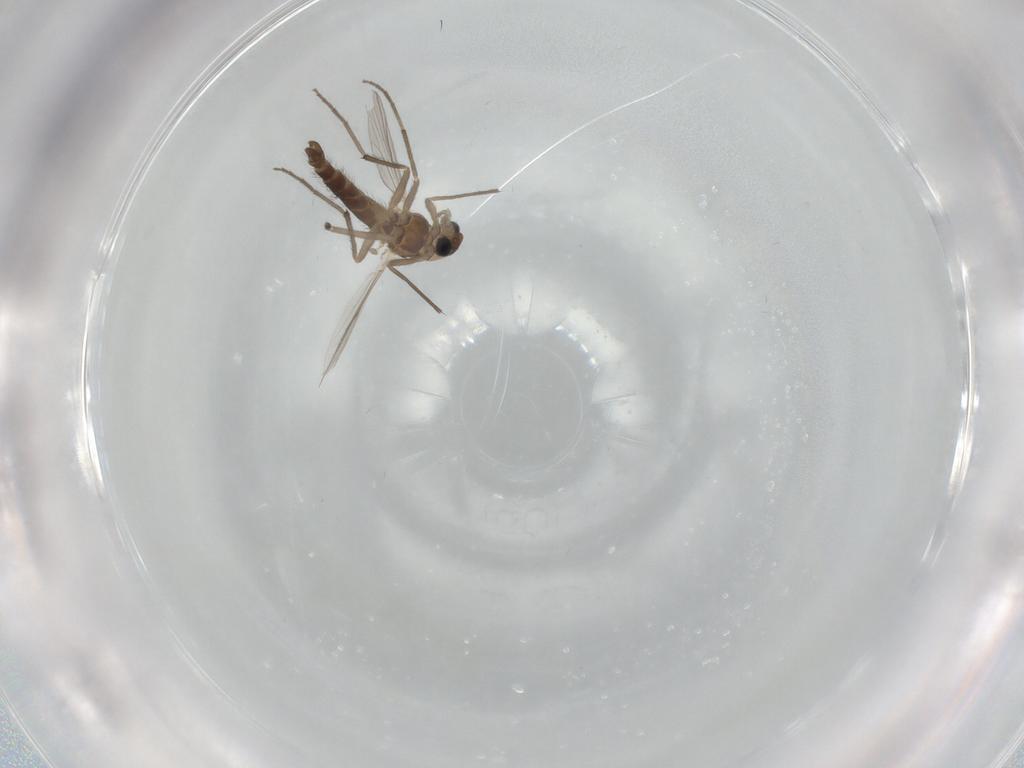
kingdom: Animalia
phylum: Arthropoda
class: Insecta
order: Diptera
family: Chironomidae
